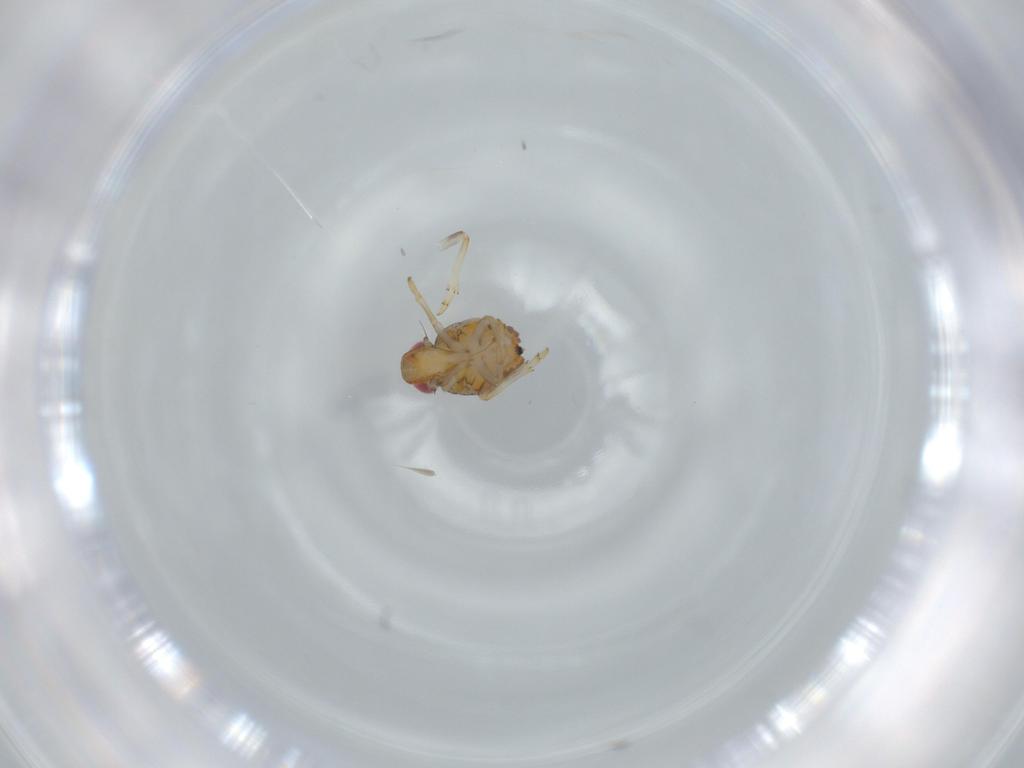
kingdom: Animalia
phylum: Arthropoda
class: Insecta
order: Hemiptera
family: Issidae
